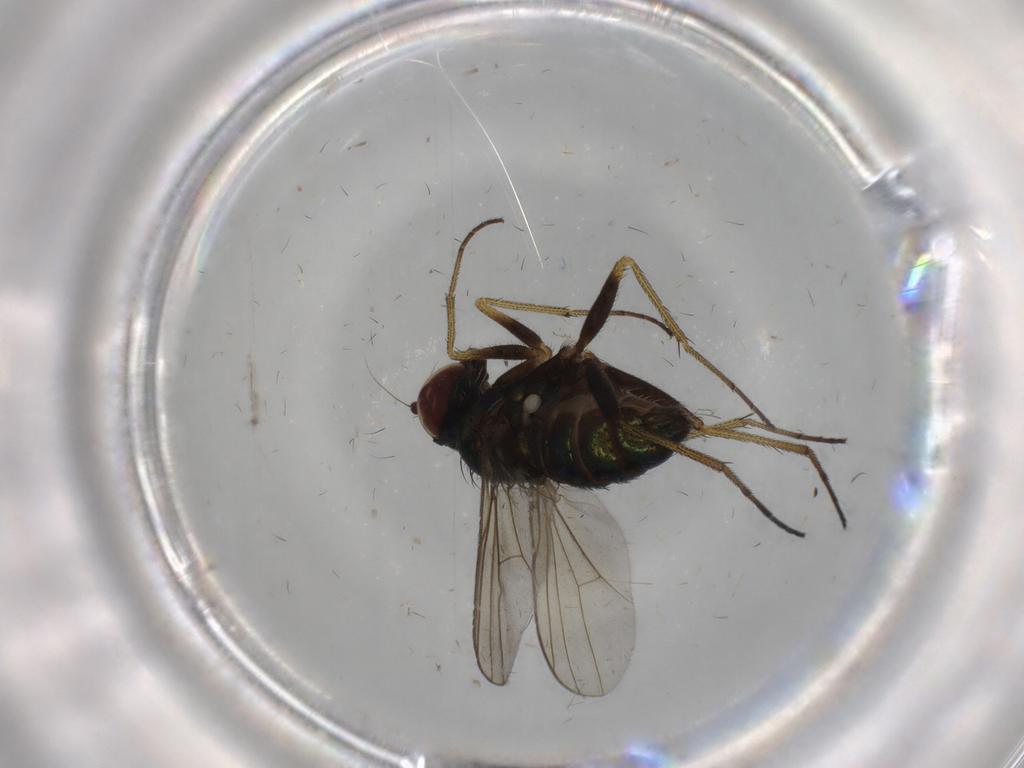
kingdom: Animalia
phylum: Arthropoda
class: Insecta
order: Diptera
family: Dolichopodidae
